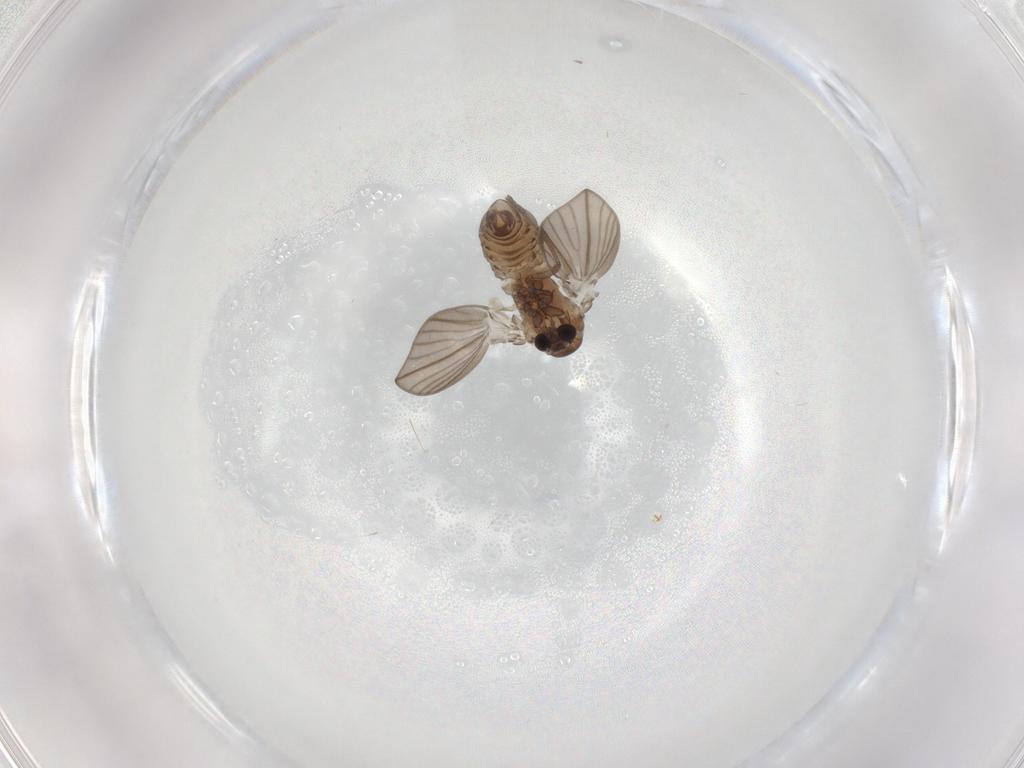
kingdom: Animalia
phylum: Arthropoda
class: Insecta
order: Diptera
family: Psychodidae
